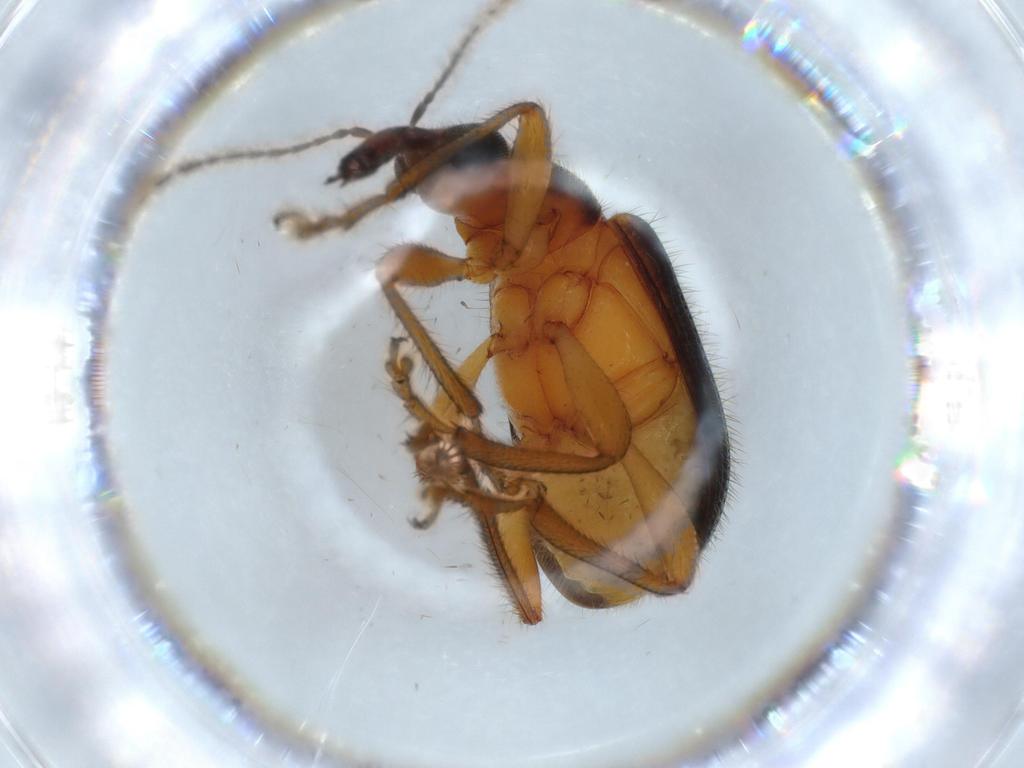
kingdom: Animalia
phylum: Arthropoda
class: Insecta
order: Coleoptera
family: Attelabidae
